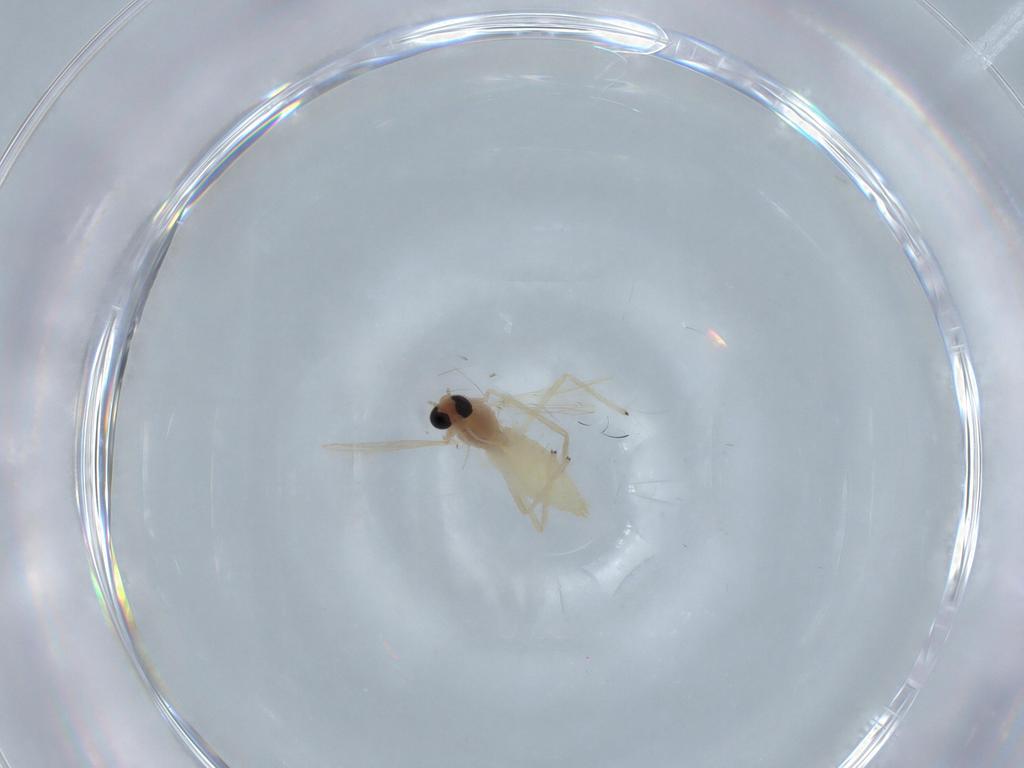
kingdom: Animalia
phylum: Arthropoda
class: Insecta
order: Diptera
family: Chironomidae
